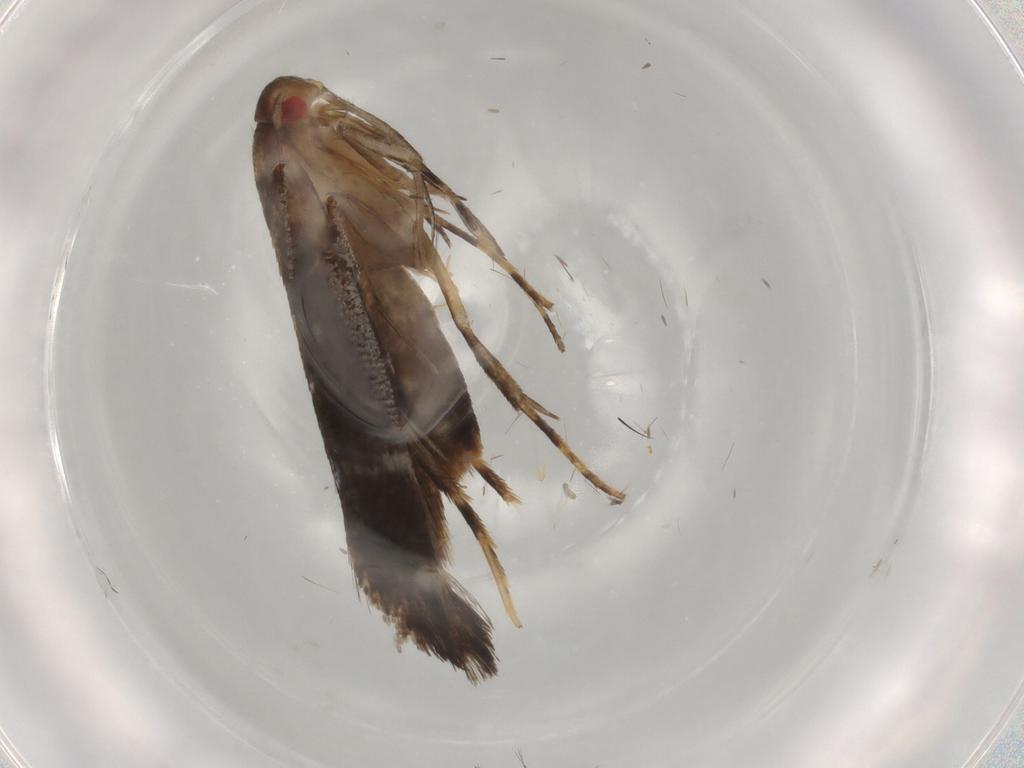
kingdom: Animalia
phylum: Arthropoda
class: Insecta
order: Lepidoptera
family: Cosmopterigidae
